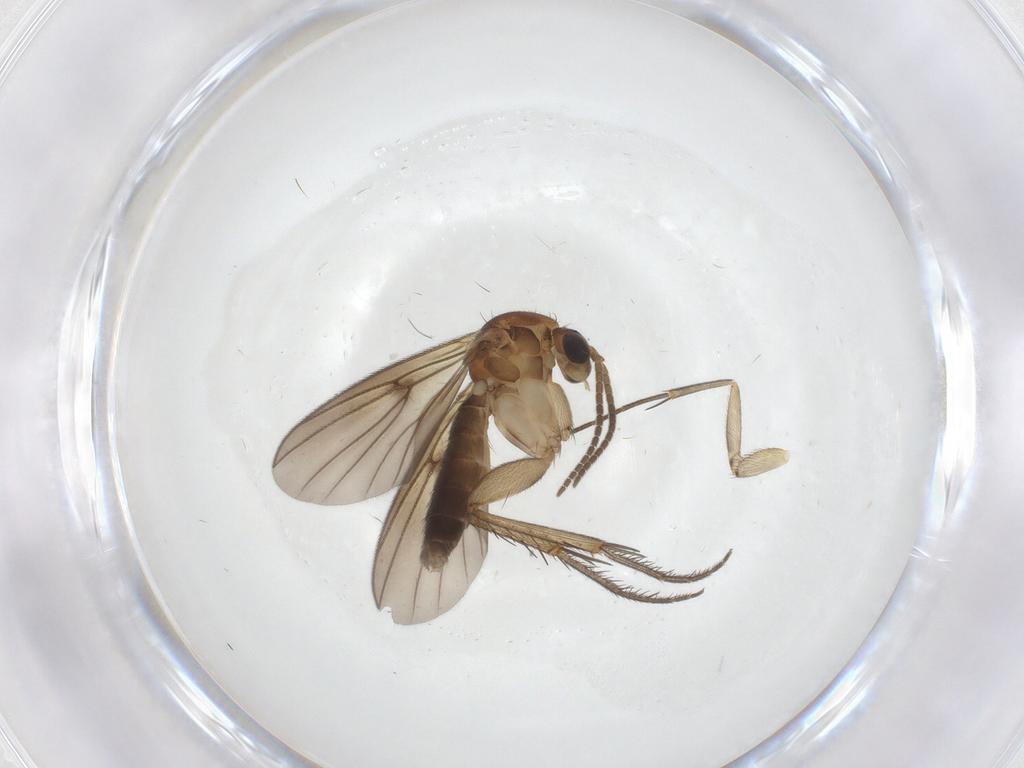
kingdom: Animalia
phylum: Arthropoda
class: Insecta
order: Diptera
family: Mycetophilidae
